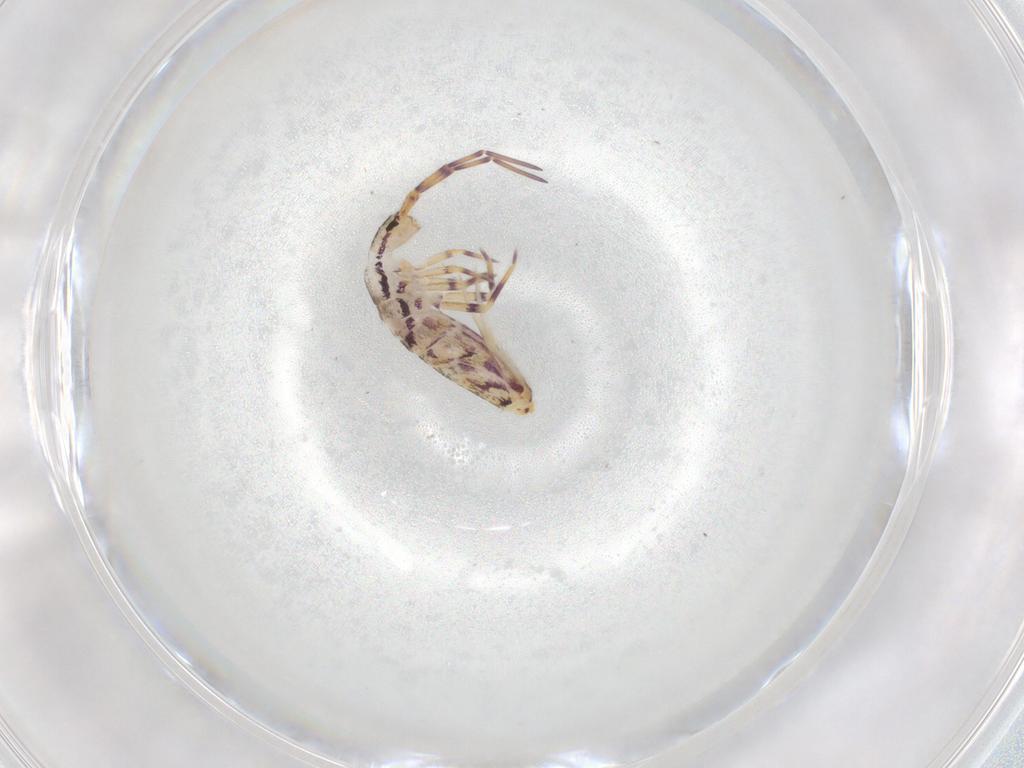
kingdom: Animalia
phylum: Arthropoda
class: Collembola
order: Entomobryomorpha
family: Entomobryidae
